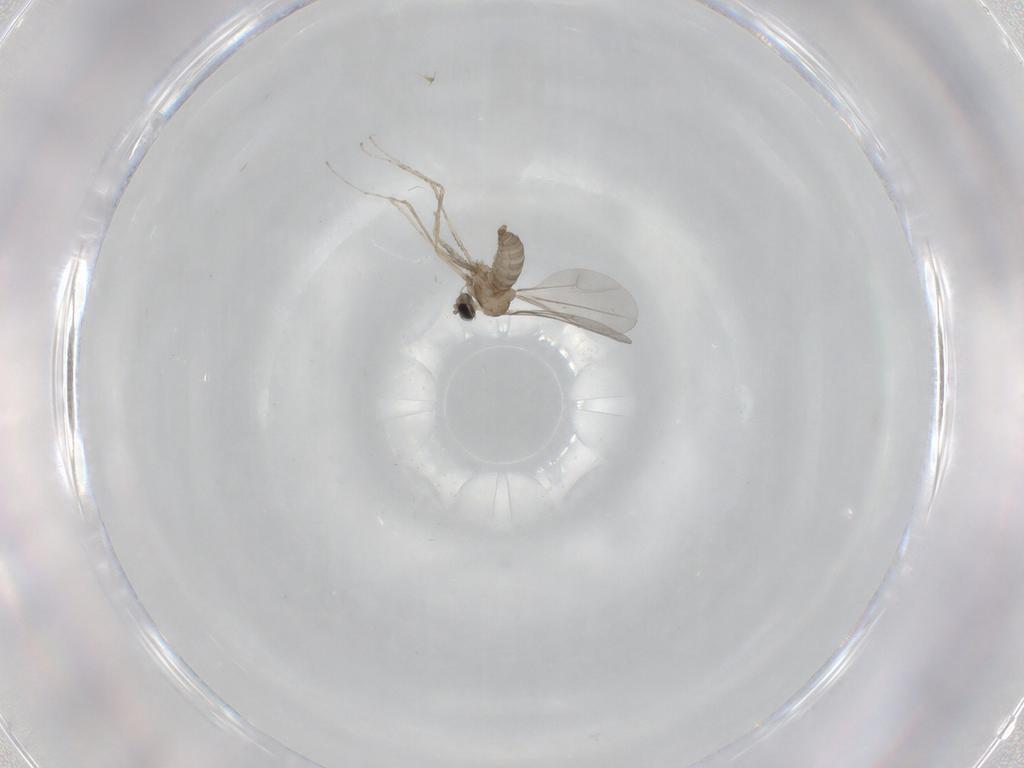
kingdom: Animalia
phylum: Arthropoda
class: Insecta
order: Diptera
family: Cecidomyiidae
